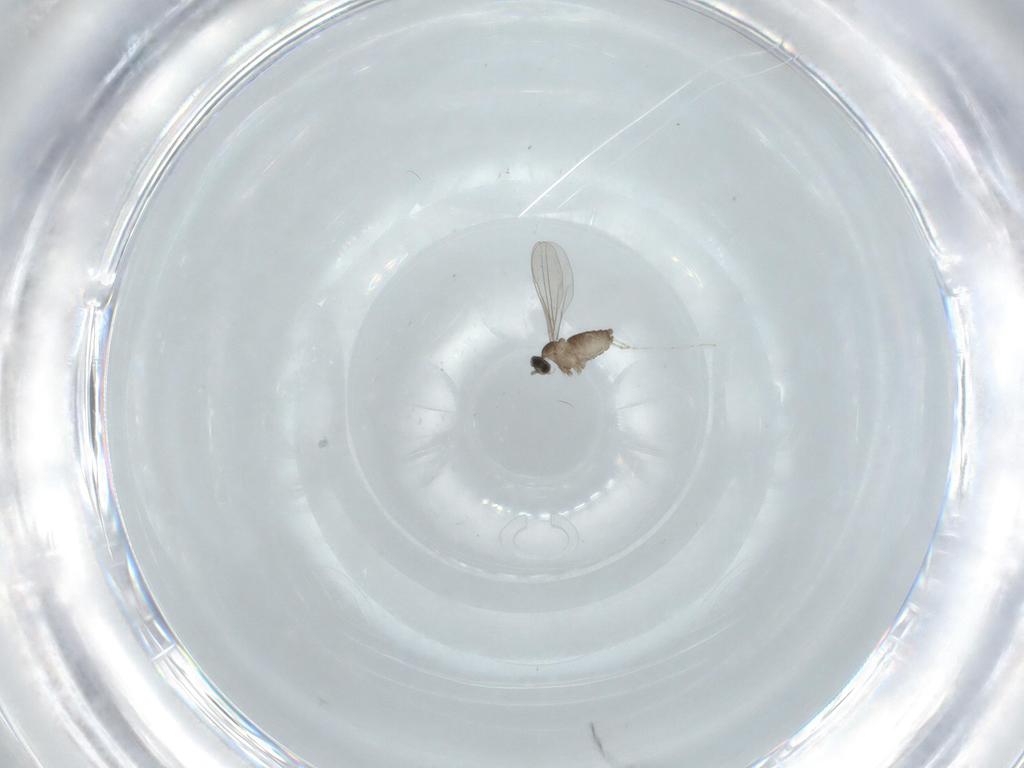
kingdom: Animalia
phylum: Arthropoda
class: Insecta
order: Diptera
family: Cecidomyiidae
